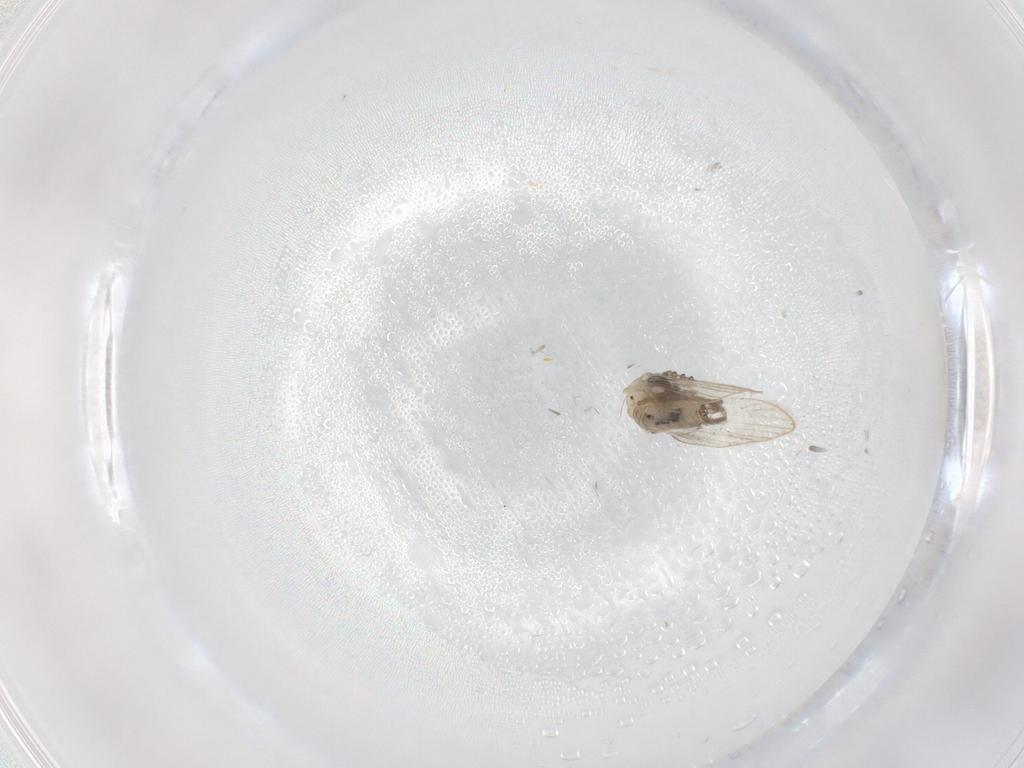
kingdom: Animalia
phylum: Arthropoda
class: Insecta
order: Diptera
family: Psychodidae
